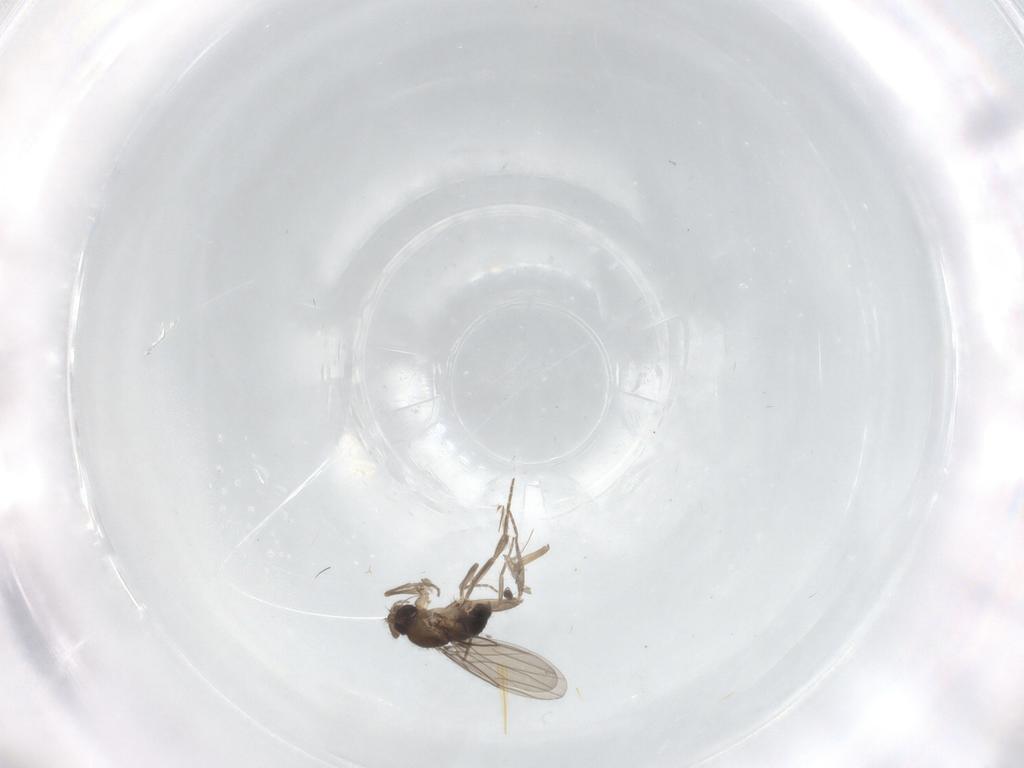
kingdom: Animalia
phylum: Arthropoda
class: Insecta
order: Diptera
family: Phoridae
